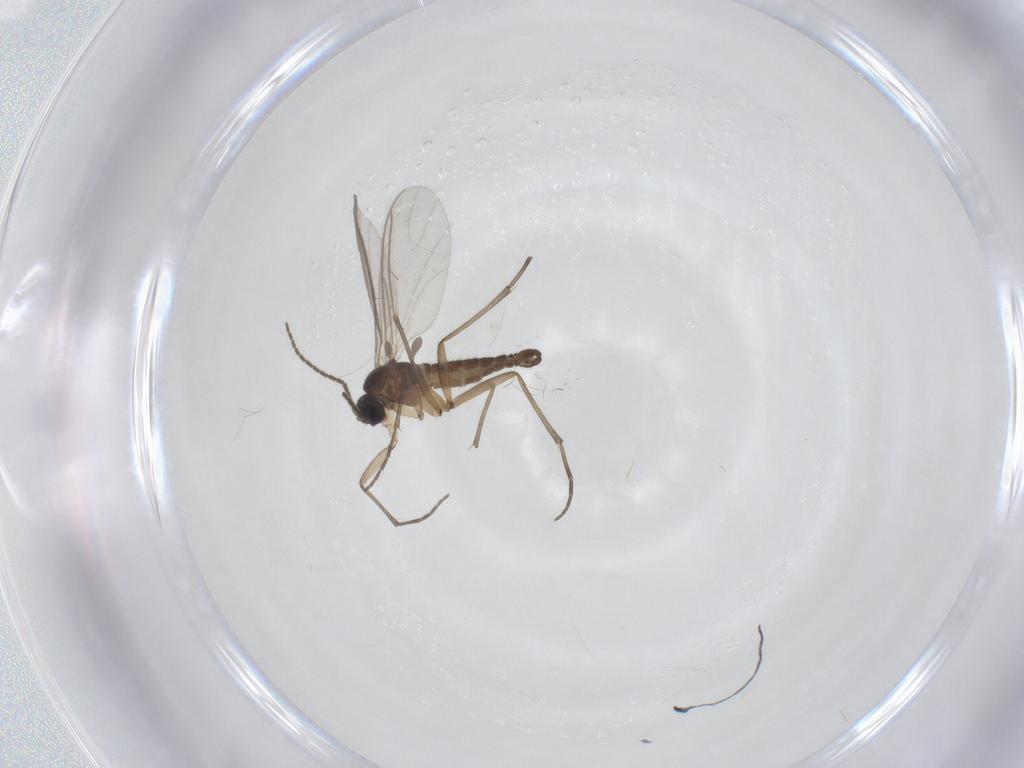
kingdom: Animalia
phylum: Arthropoda
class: Insecta
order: Diptera
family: Sciaridae
